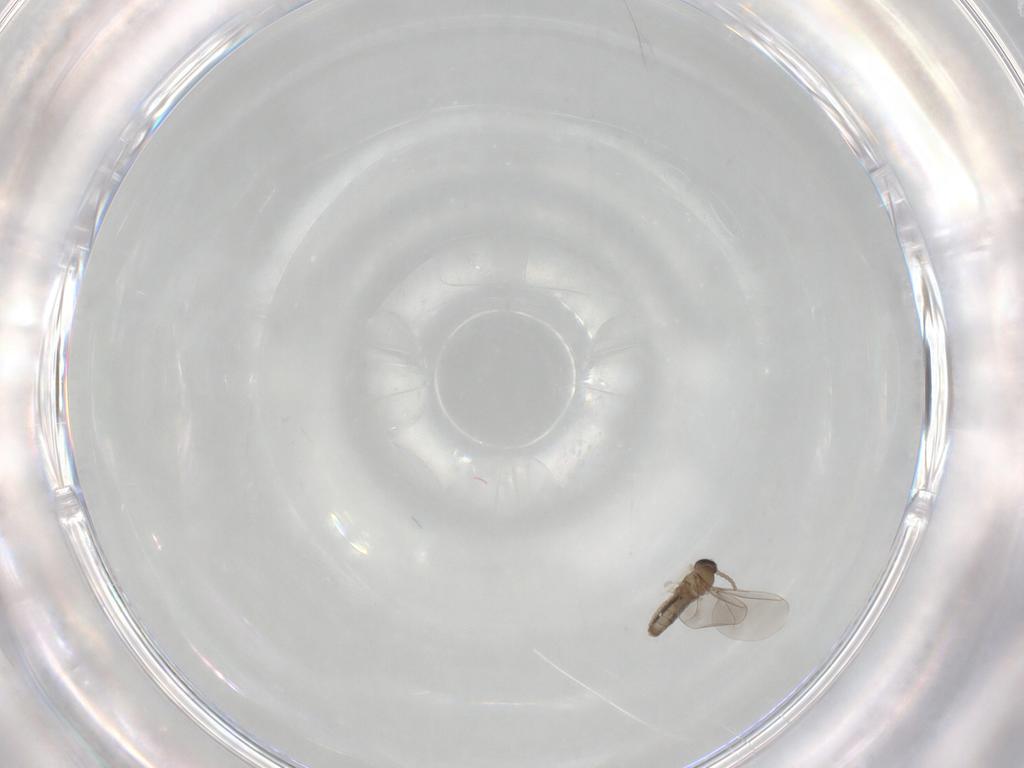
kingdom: Animalia
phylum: Arthropoda
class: Insecta
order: Diptera
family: Cecidomyiidae
